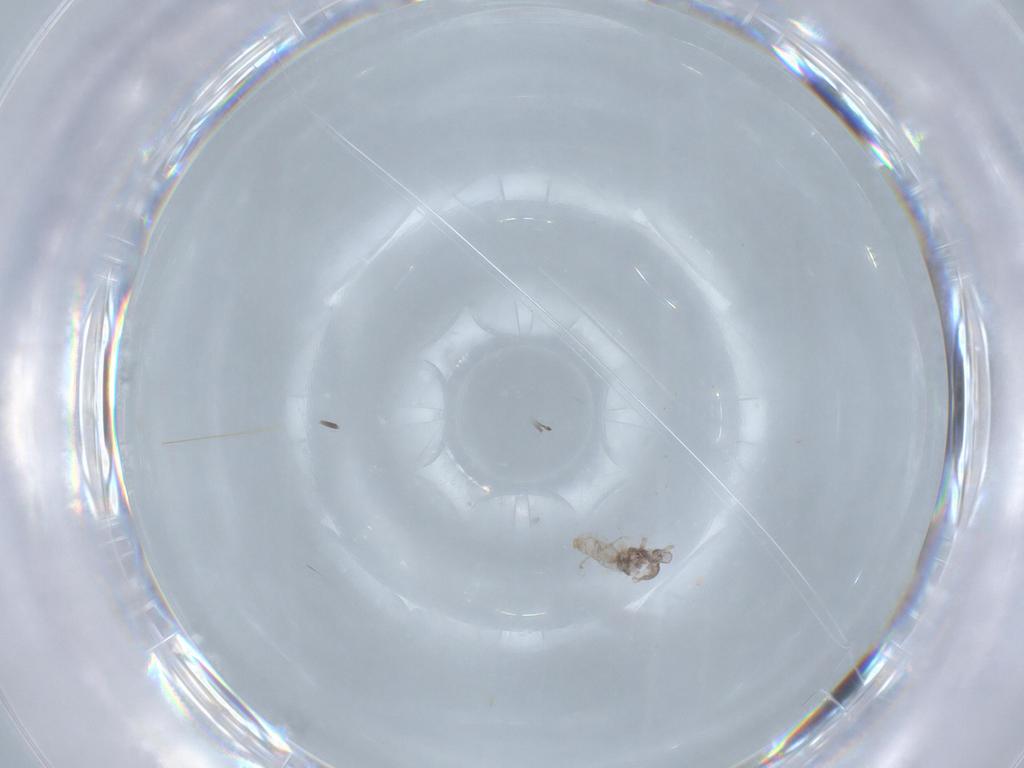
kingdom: Animalia
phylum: Arthropoda
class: Insecta
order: Diptera
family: Cecidomyiidae
